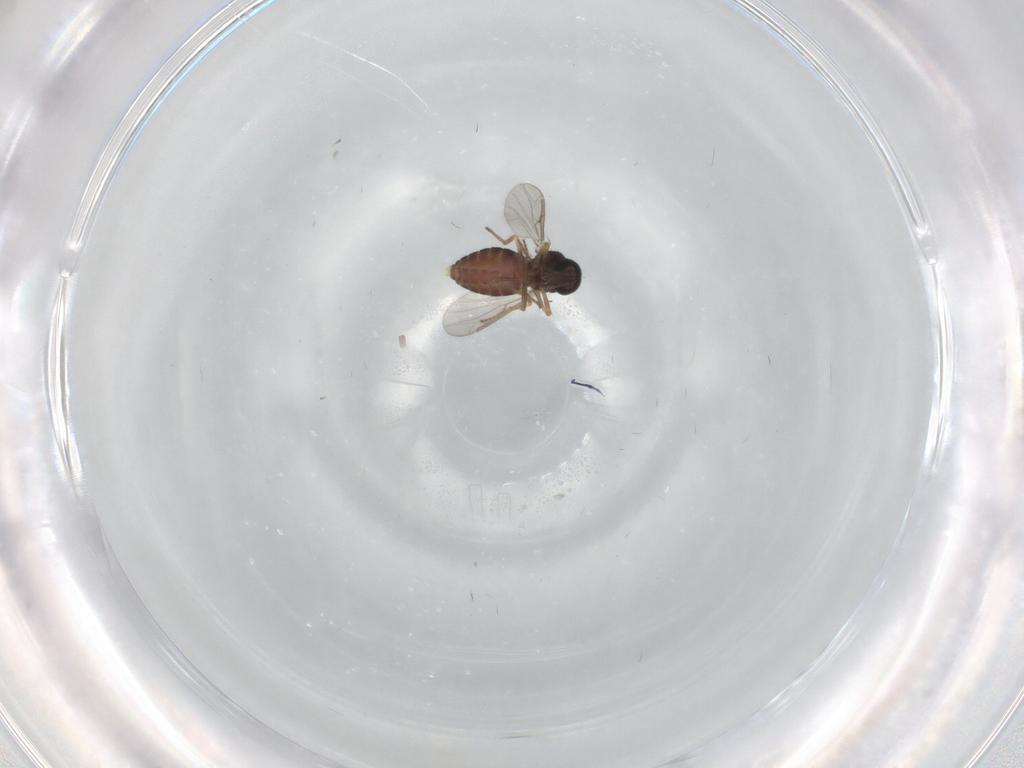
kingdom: Animalia
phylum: Arthropoda
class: Insecta
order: Diptera
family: Ceratopogonidae
